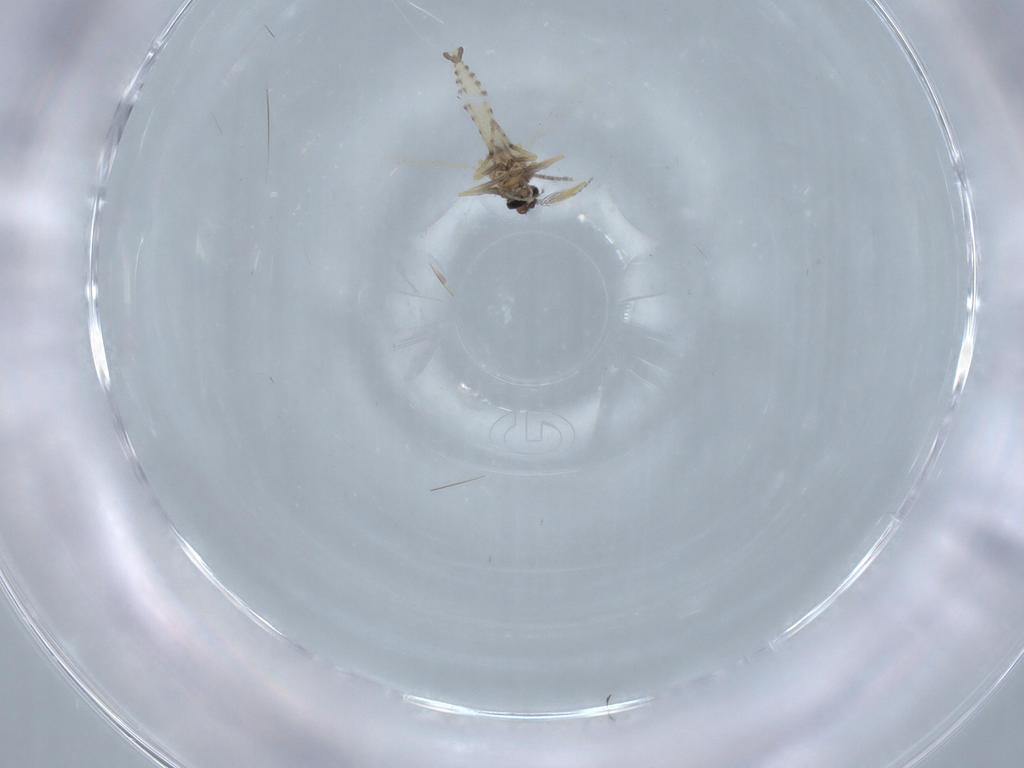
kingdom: Animalia
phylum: Arthropoda
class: Insecta
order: Diptera
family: Ceratopogonidae
